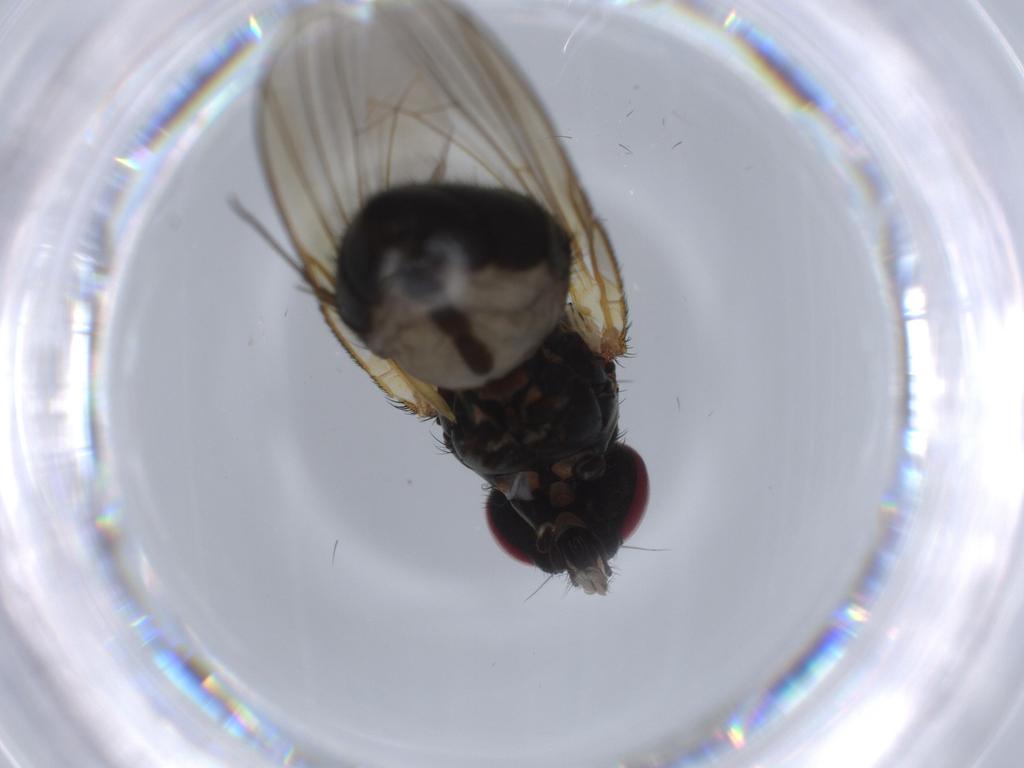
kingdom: Animalia
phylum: Arthropoda
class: Insecta
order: Diptera
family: Fannia
